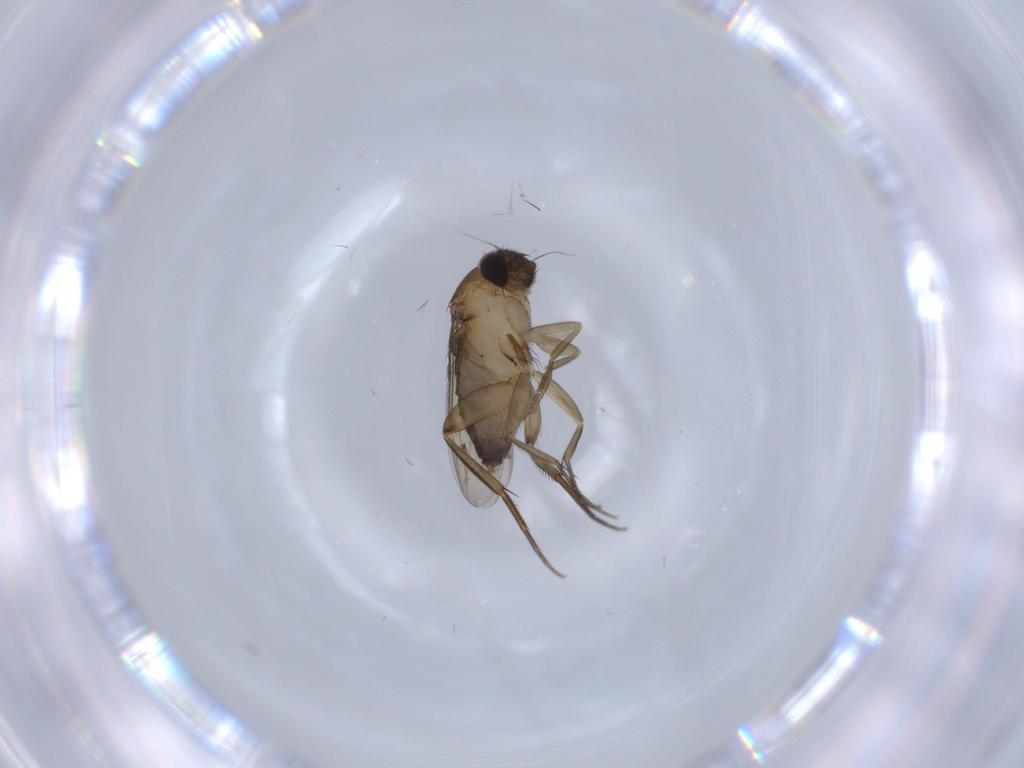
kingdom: Animalia
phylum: Arthropoda
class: Insecta
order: Diptera
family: Phoridae
